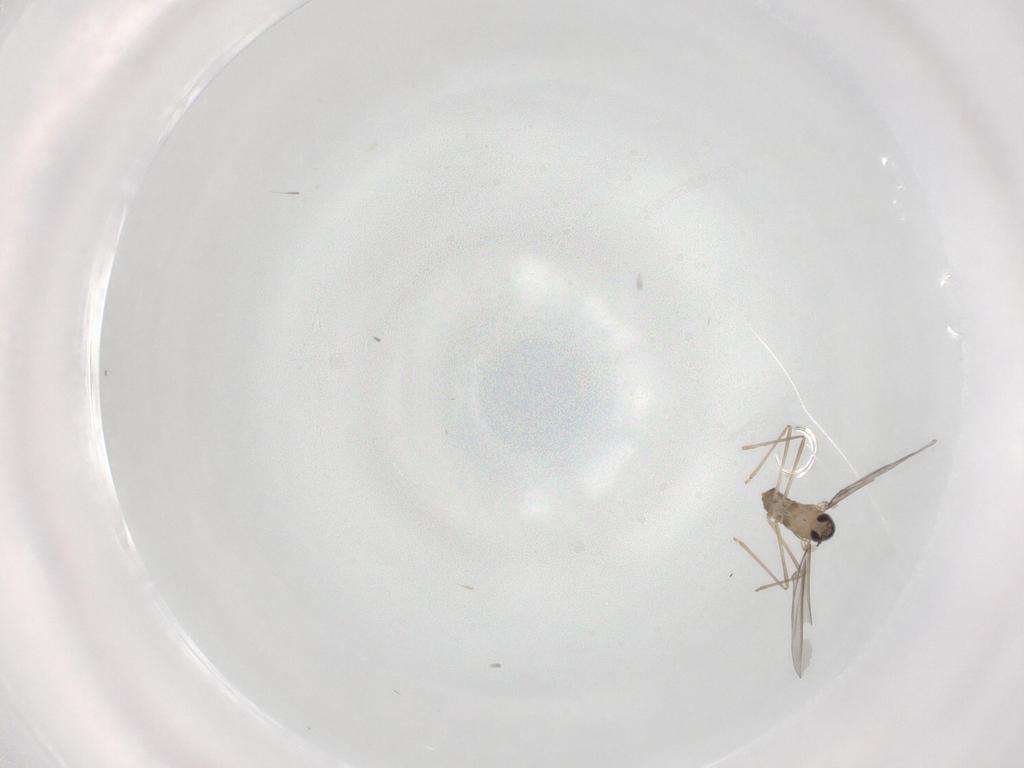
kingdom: Animalia
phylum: Arthropoda
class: Insecta
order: Diptera
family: Cecidomyiidae
